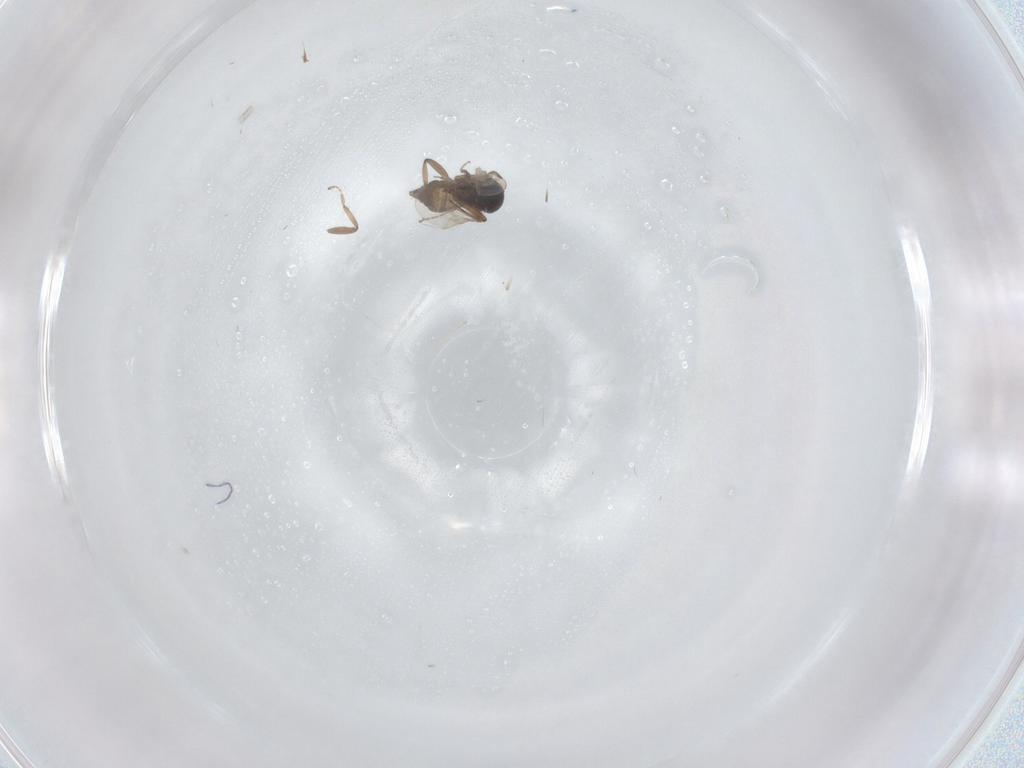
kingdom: Animalia
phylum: Arthropoda
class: Insecta
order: Diptera
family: Ceratopogonidae
